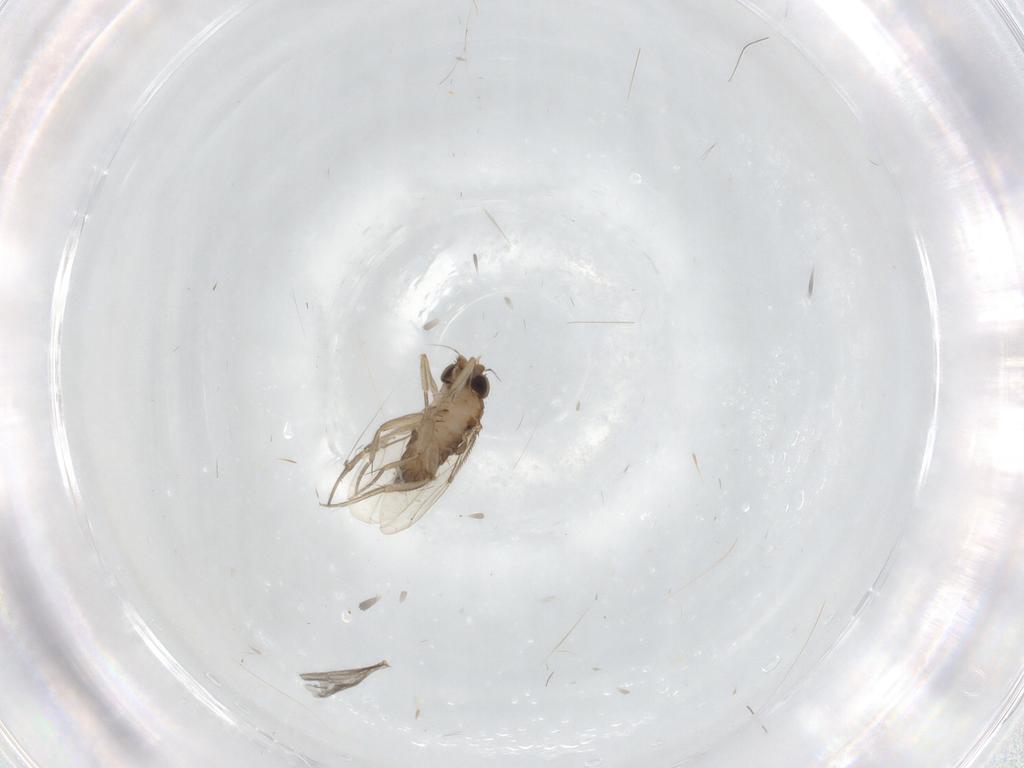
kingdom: Animalia
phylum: Arthropoda
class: Insecta
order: Diptera
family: Phoridae
